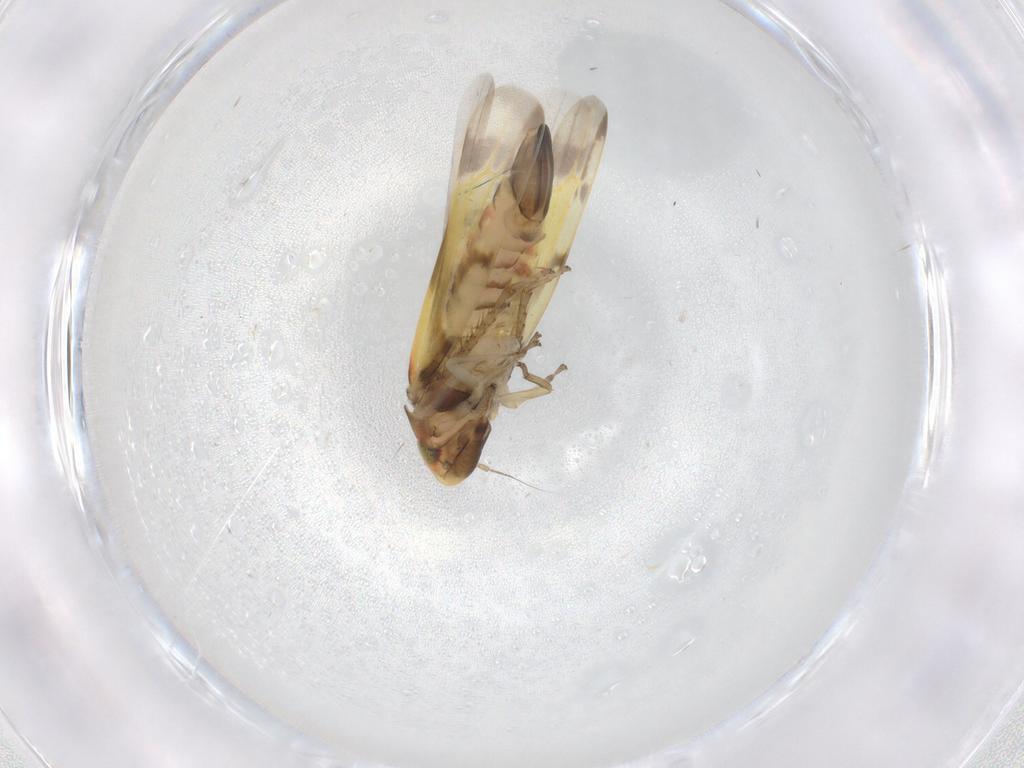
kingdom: Animalia
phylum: Arthropoda
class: Insecta
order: Hemiptera
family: Cicadellidae
